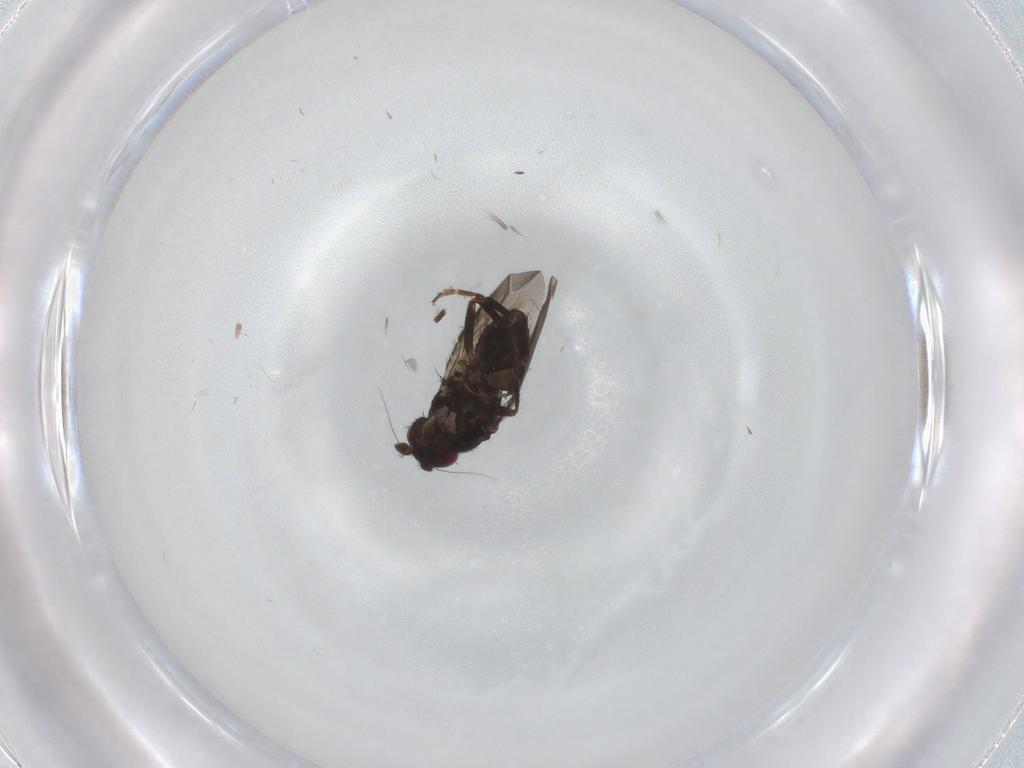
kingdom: Animalia
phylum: Arthropoda
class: Insecta
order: Diptera
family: Sphaeroceridae
